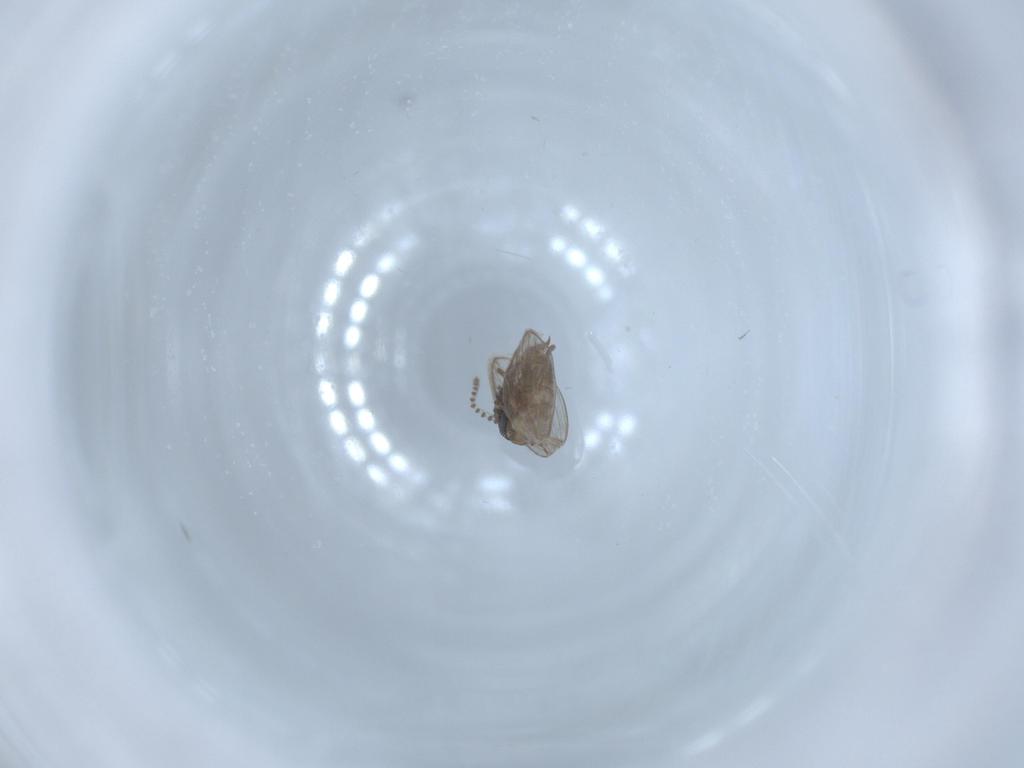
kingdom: Animalia
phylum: Arthropoda
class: Insecta
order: Diptera
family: Psychodidae
